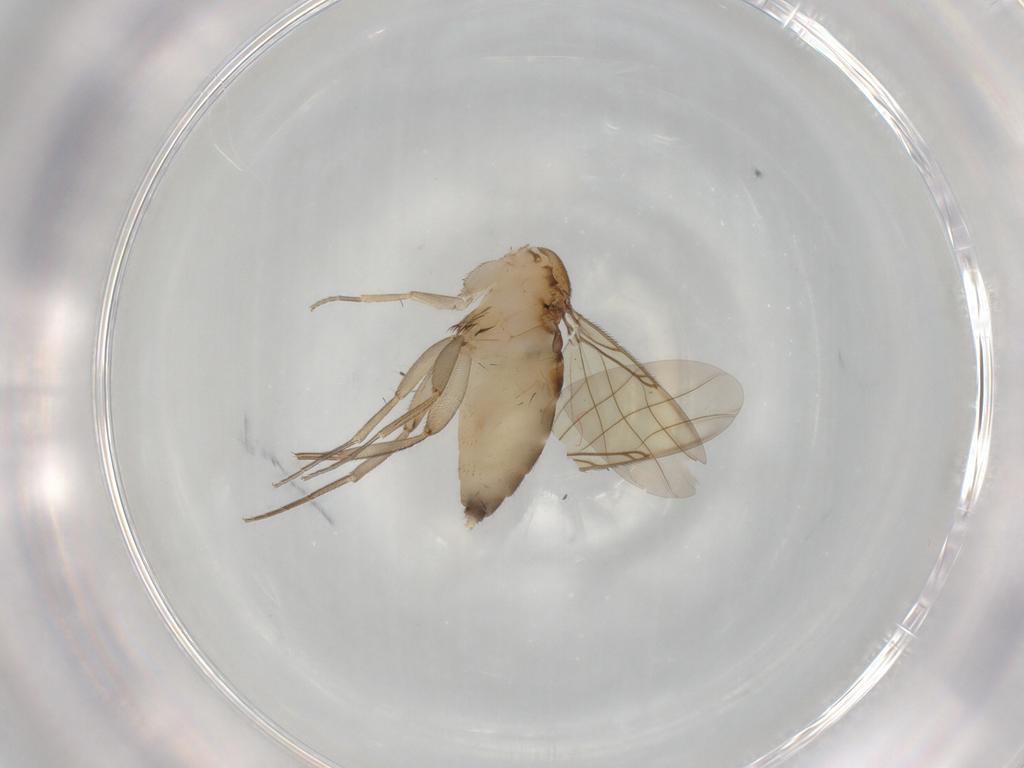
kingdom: Animalia
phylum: Arthropoda
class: Insecta
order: Diptera
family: Phoridae
